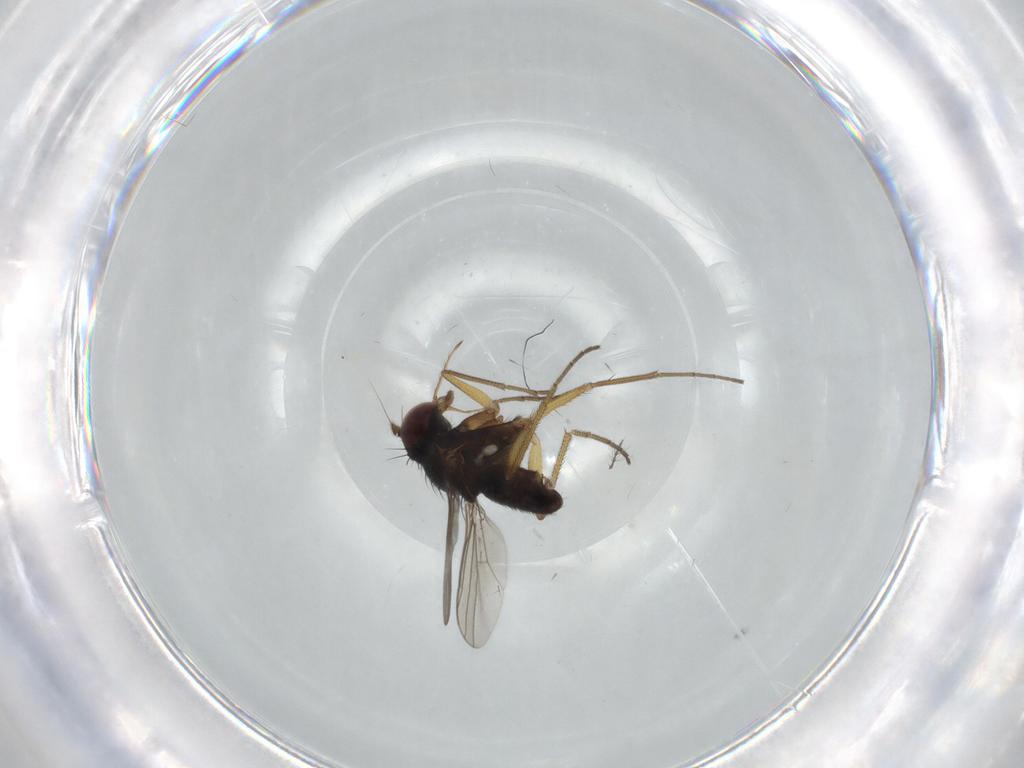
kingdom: Animalia
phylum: Arthropoda
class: Insecta
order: Diptera
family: Dolichopodidae
